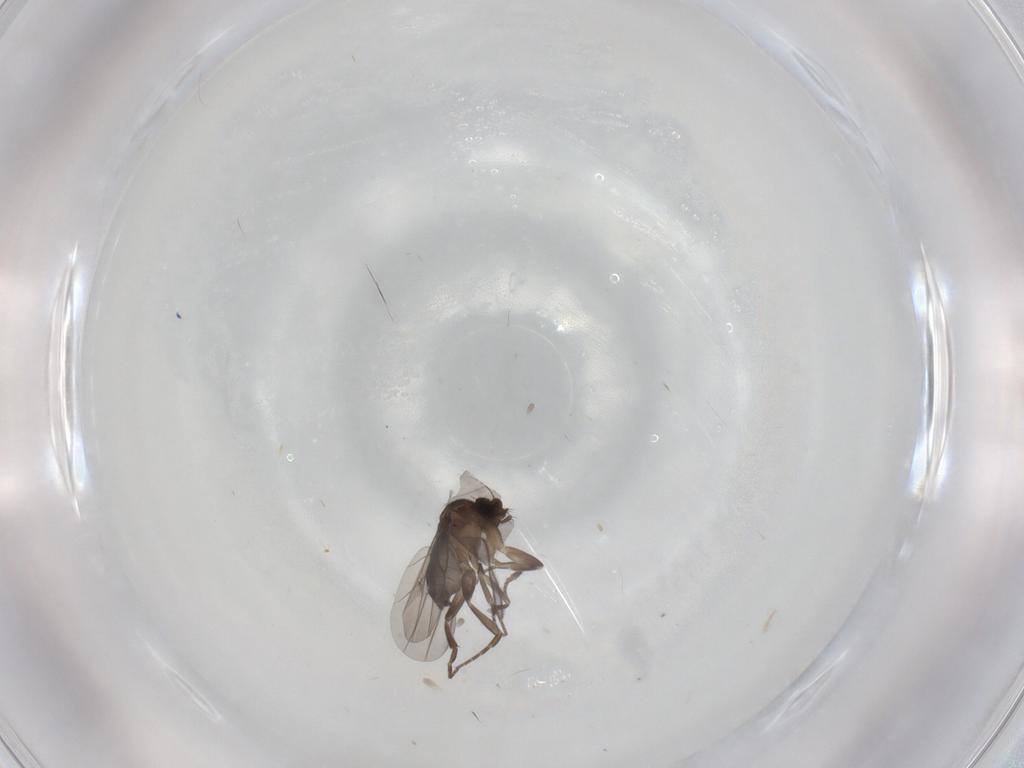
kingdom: Animalia
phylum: Arthropoda
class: Insecta
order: Diptera
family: Sciaridae
